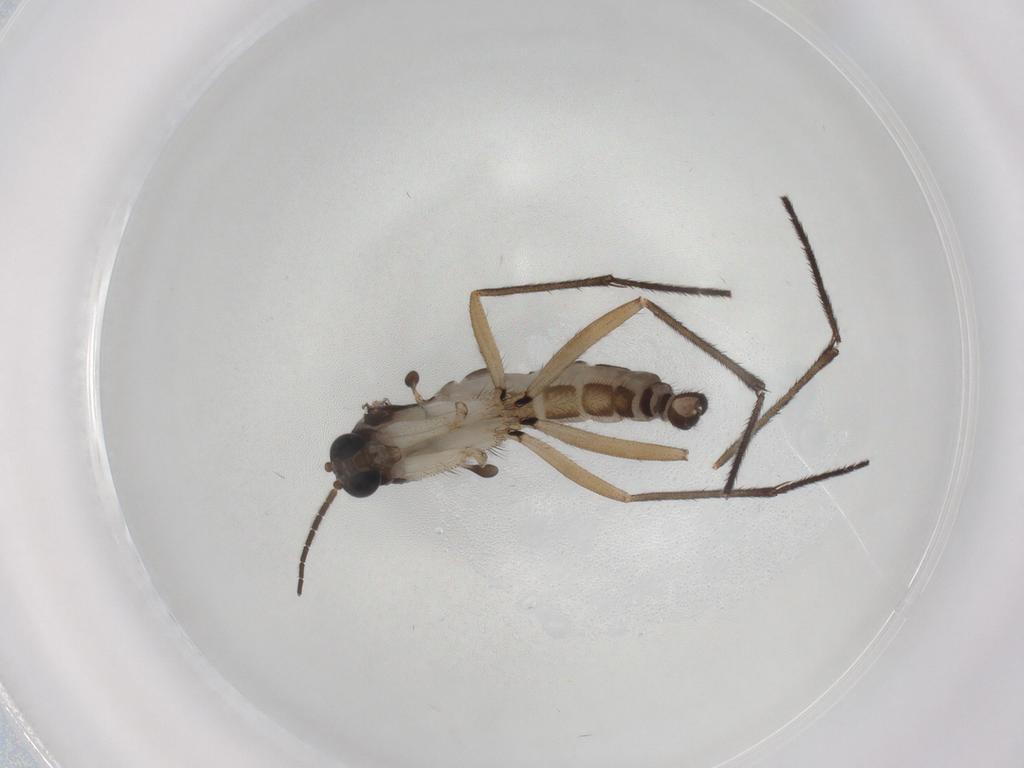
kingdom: Animalia
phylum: Arthropoda
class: Insecta
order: Diptera
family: Sciaridae
